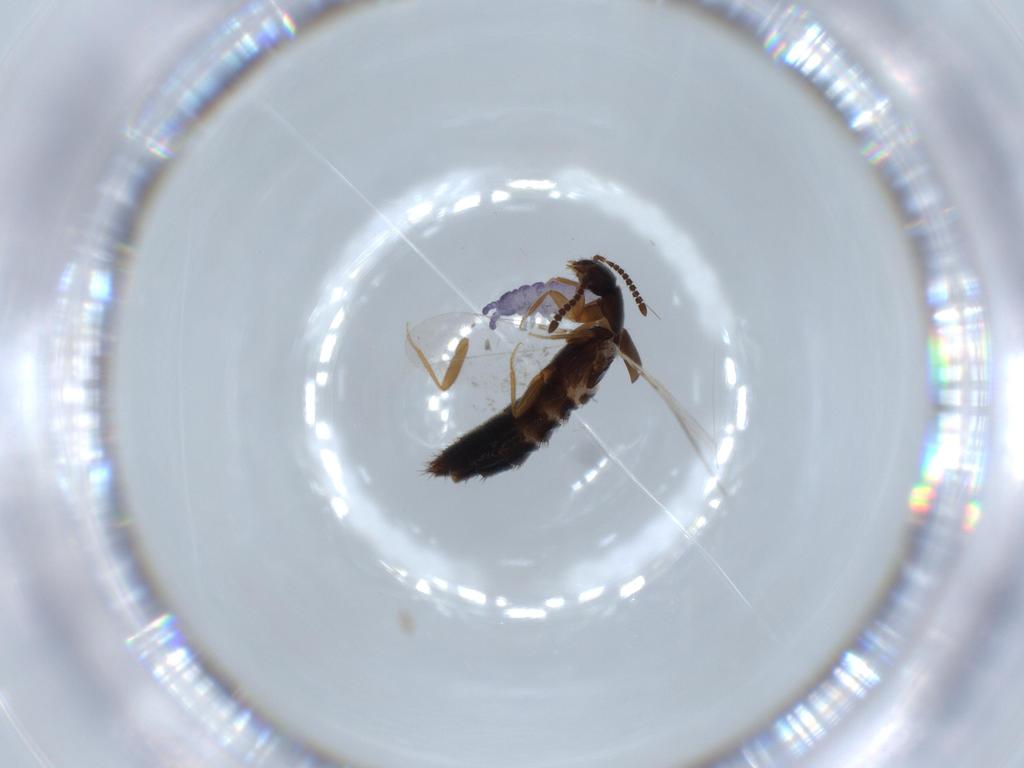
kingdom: Animalia
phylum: Arthropoda
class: Collembola
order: Poduromorpha
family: Neanuridae
